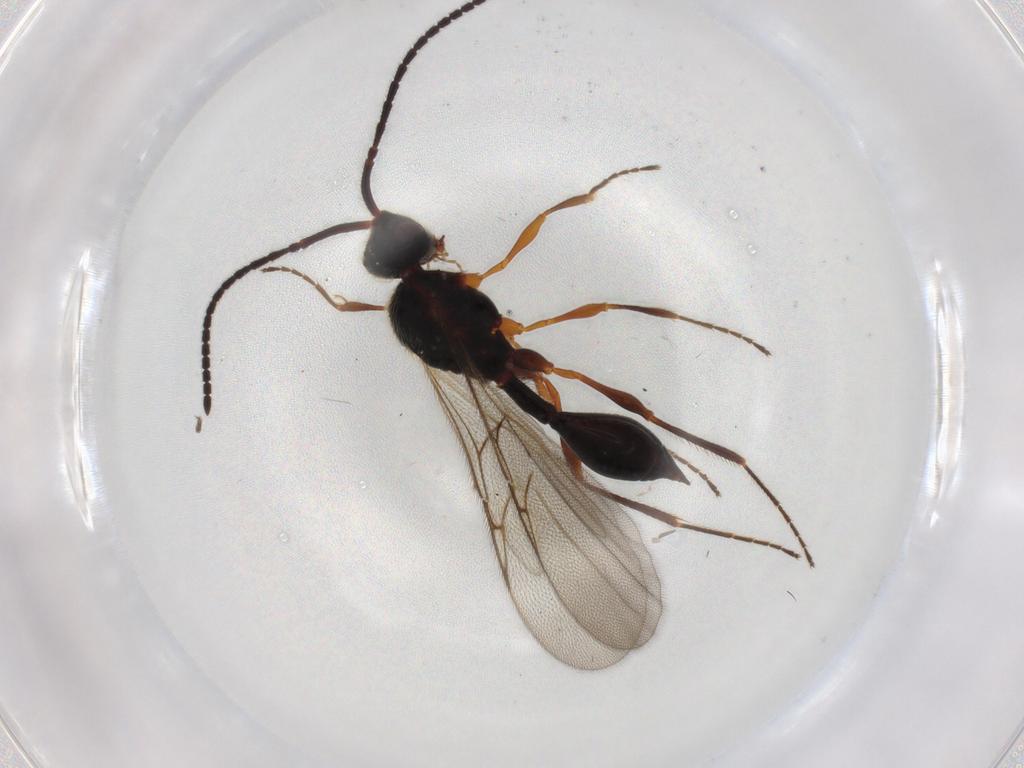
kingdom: Animalia
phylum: Arthropoda
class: Insecta
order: Hymenoptera
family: Diapriidae
